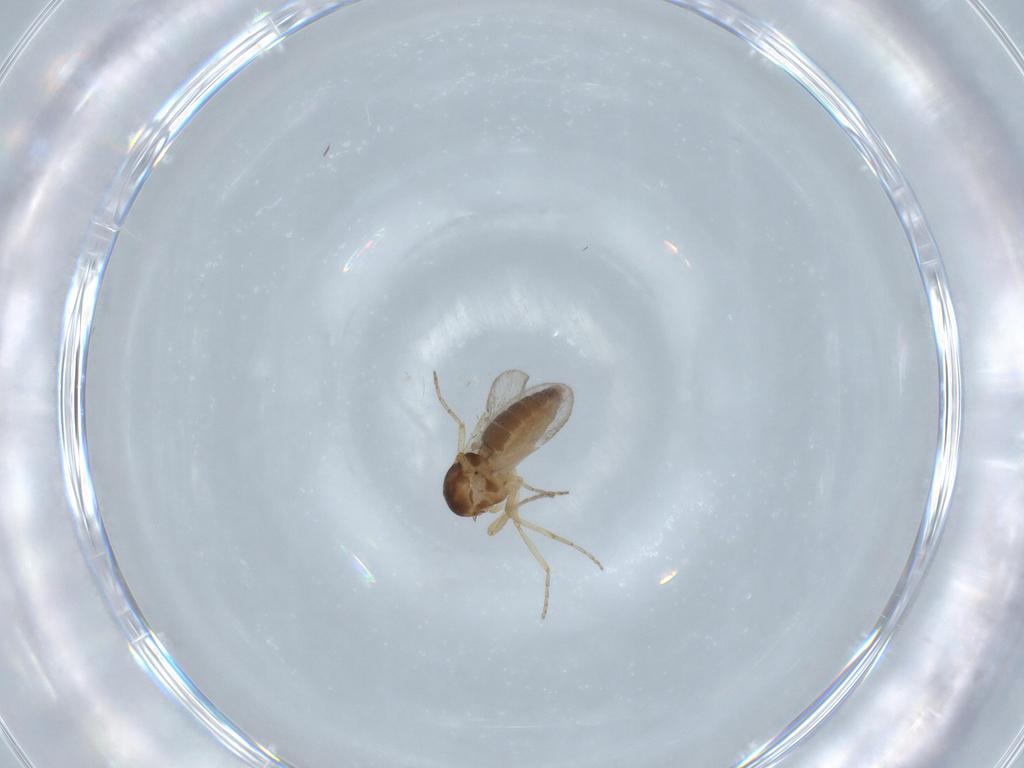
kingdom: Animalia
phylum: Arthropoda
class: Insecta
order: Diptera
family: Ceratopogonidae
